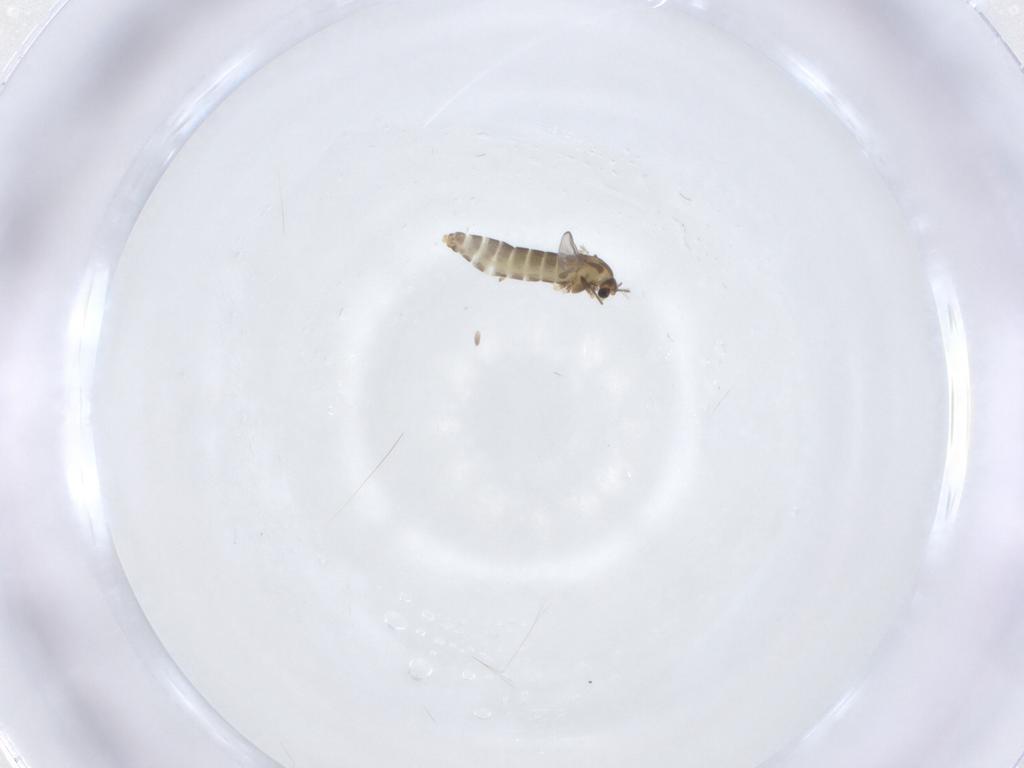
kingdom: Animalia
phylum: Arthropoda
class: Insecta
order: Diptera
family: Chironomidae
